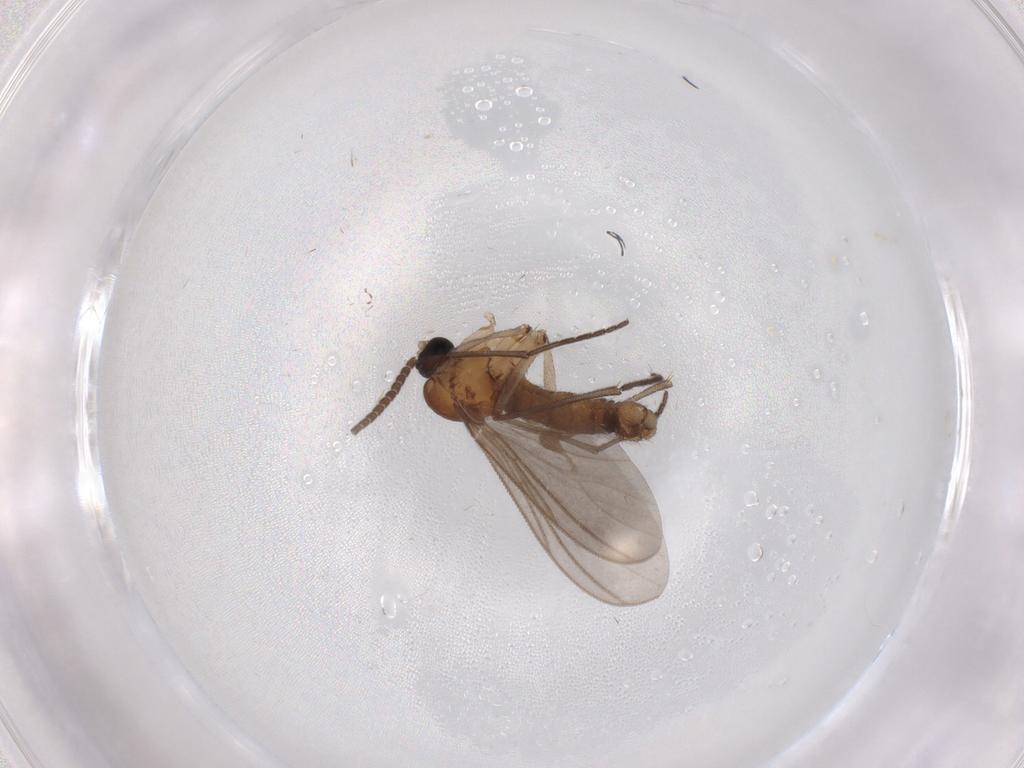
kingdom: Animalia
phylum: Arthropoda
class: Insecta
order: Diptera
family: Sciaridae
